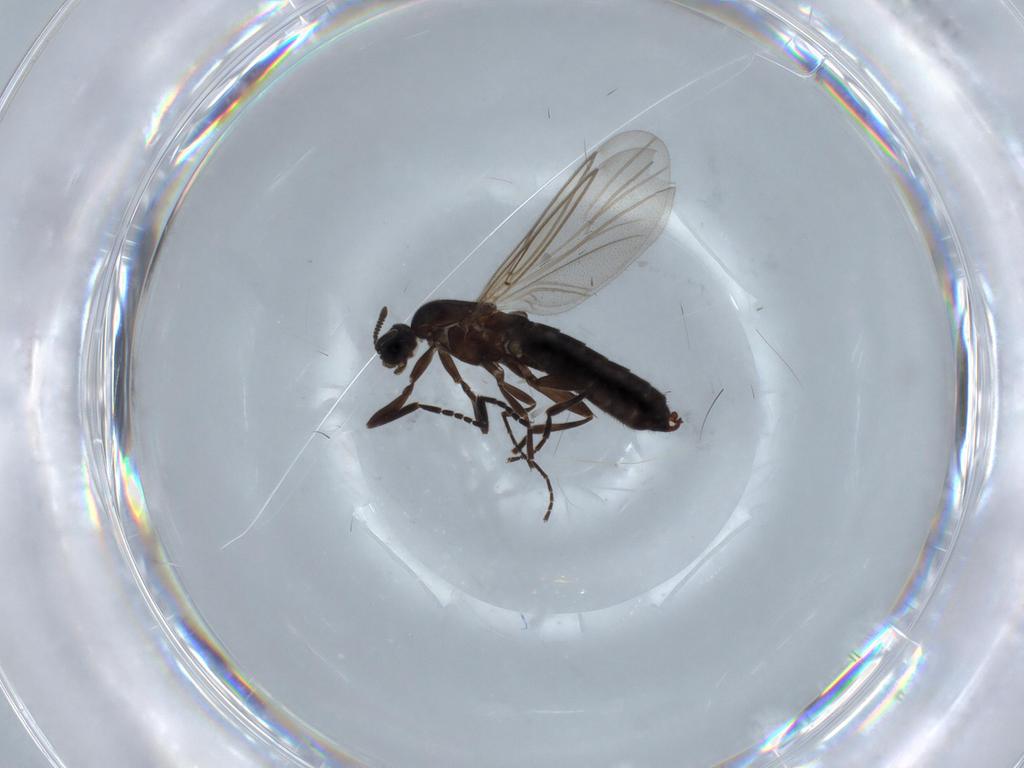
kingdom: Animalia
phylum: Arthropoda
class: Insecta
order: Diptera
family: Scatopsidae
